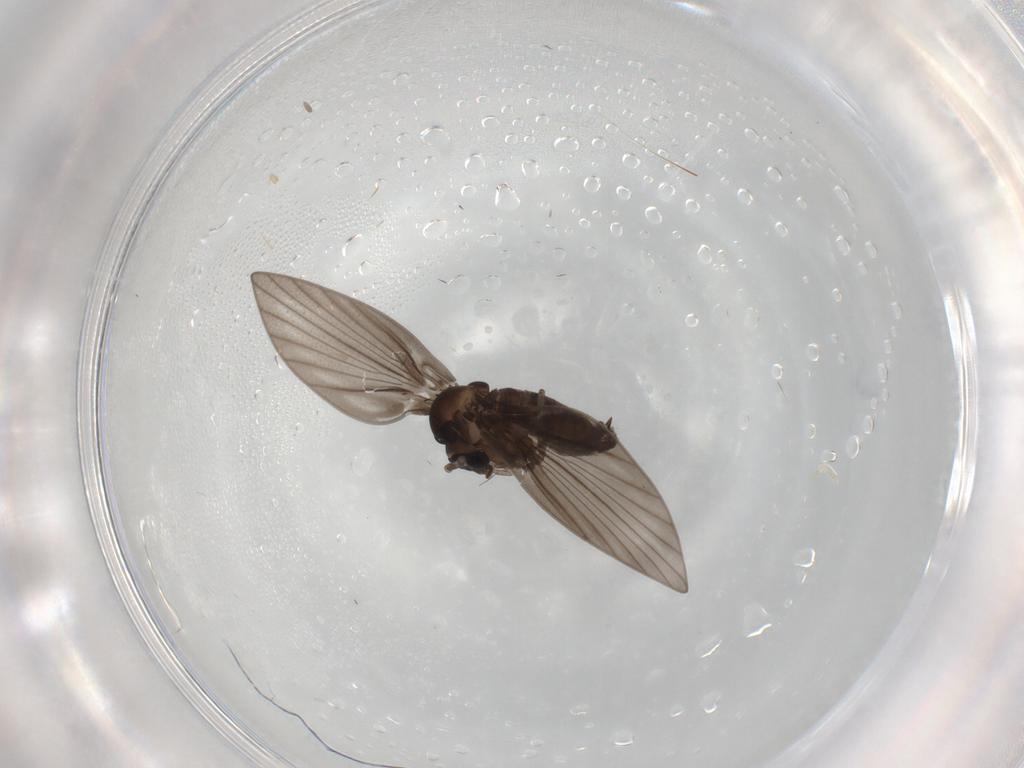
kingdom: Animalia
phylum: Arthropoda
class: Insecta
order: Diptera
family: Psychodidae
